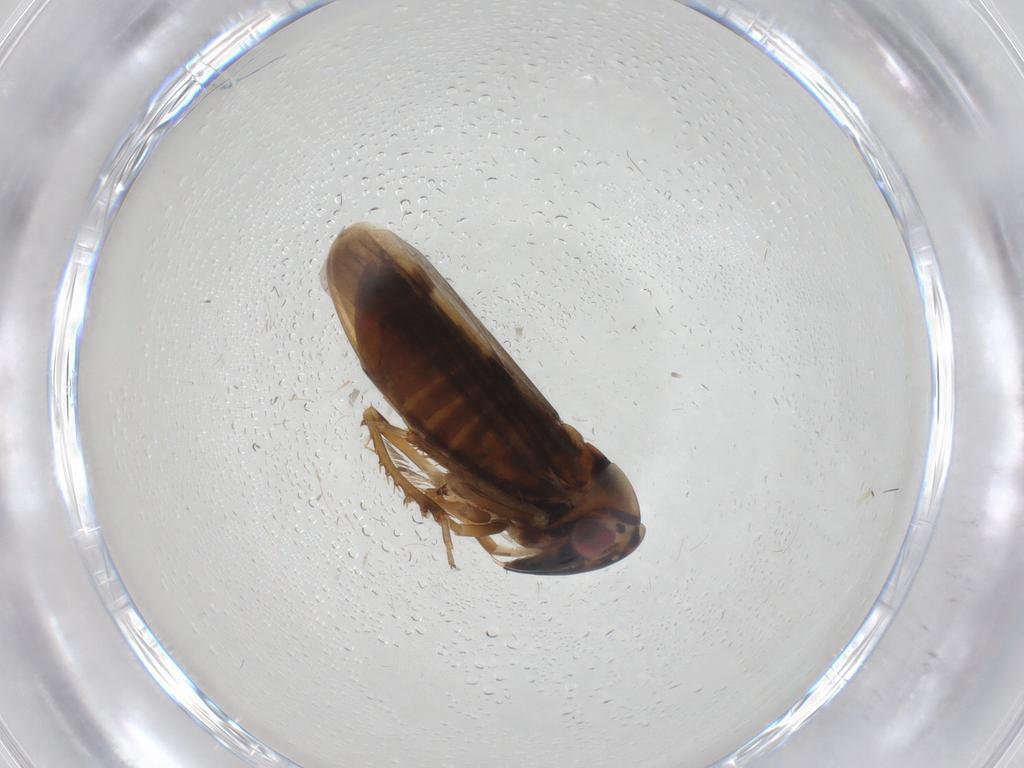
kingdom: Animalia
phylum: Arthropoda
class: Insecta
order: Hemiptera
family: Cicadellidae
